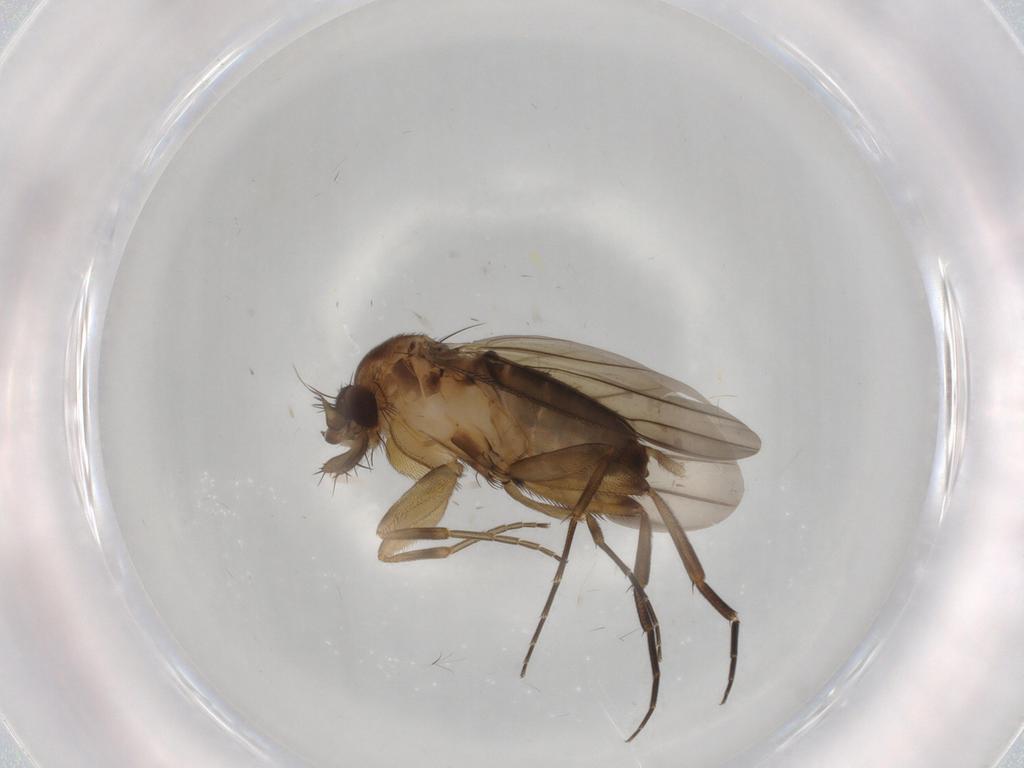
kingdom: Animalia
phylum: Arthropoda
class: Insecta
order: Diptera
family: Phoridae
